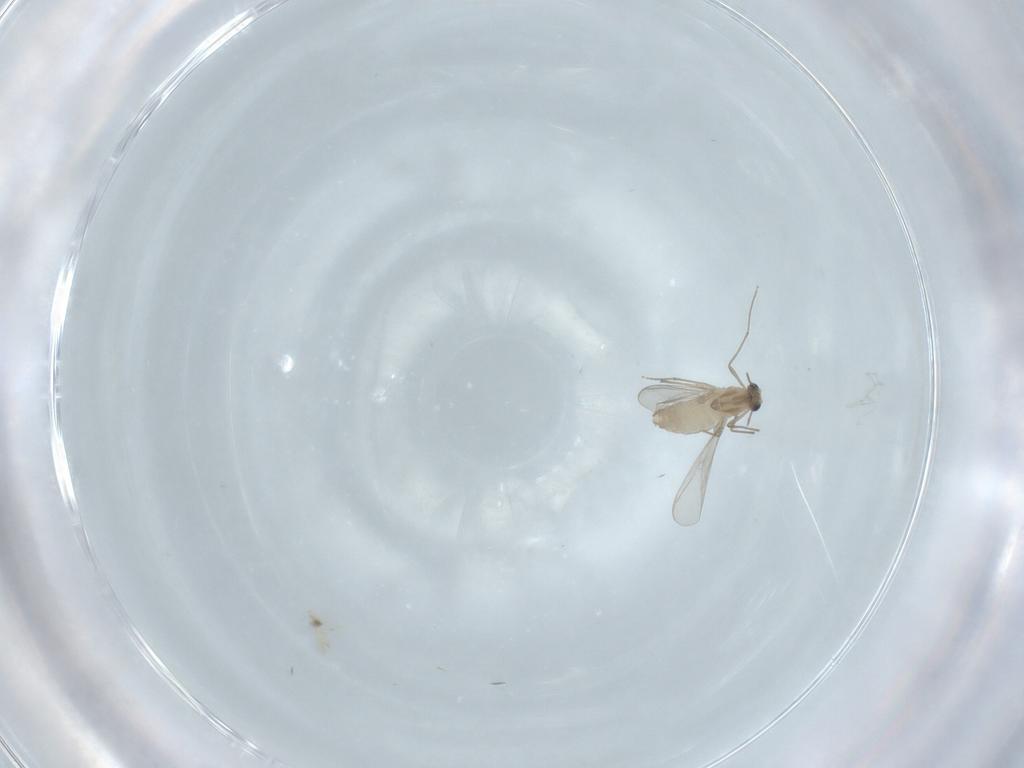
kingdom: Animalia
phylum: Arthropoda
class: Insecta
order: Diptera
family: Chironomidae
